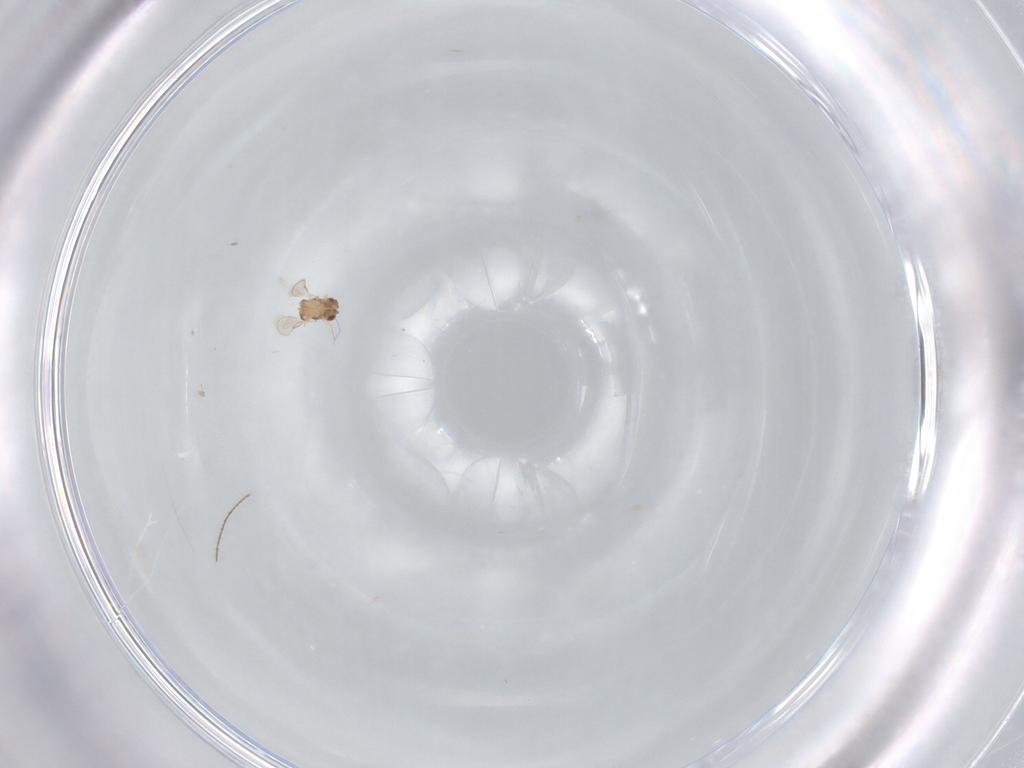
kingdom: Animalia
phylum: Arthropoda
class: Insecta
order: Hymenoptera
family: Aphelinidae
